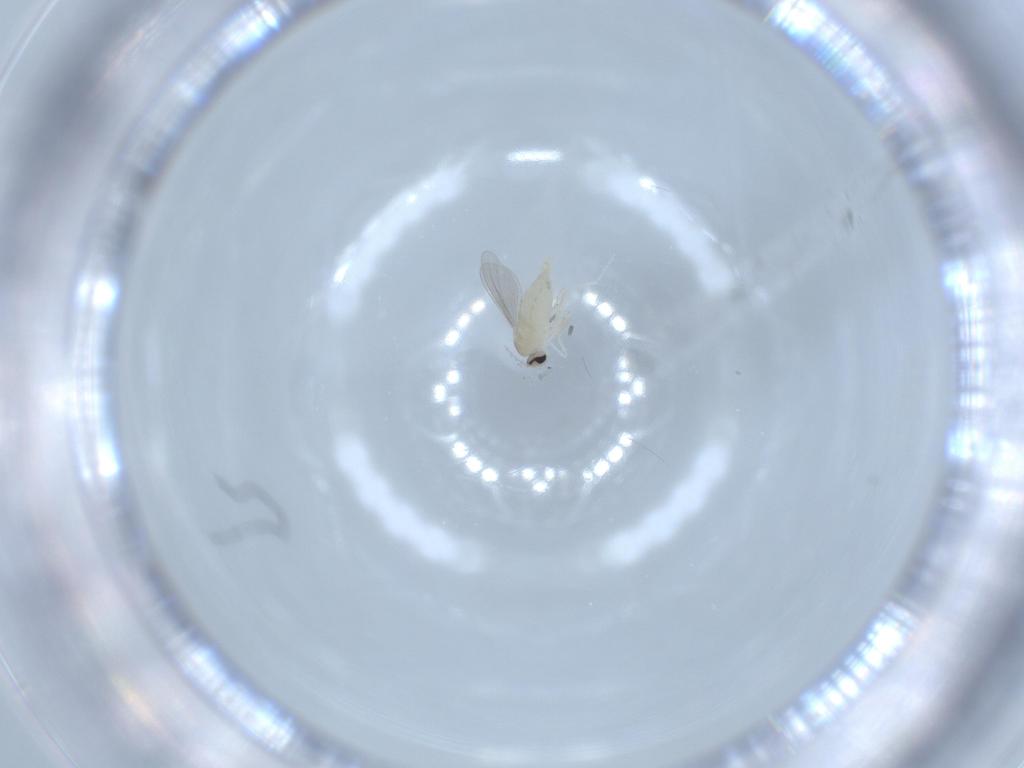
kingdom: Animalia
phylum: Arthropoda
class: Insecta
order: Diptera
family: Cecidomyiidae
